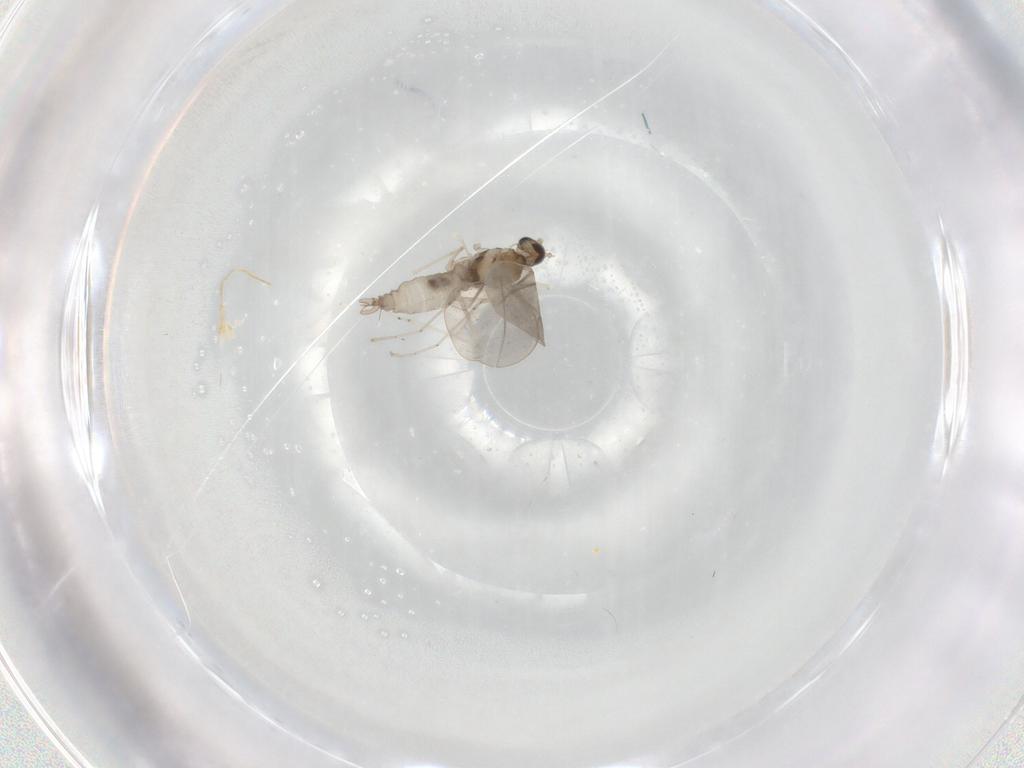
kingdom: Animalia
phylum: Arthropoda
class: Insecta
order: Diptera
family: Cecidomyiidae
